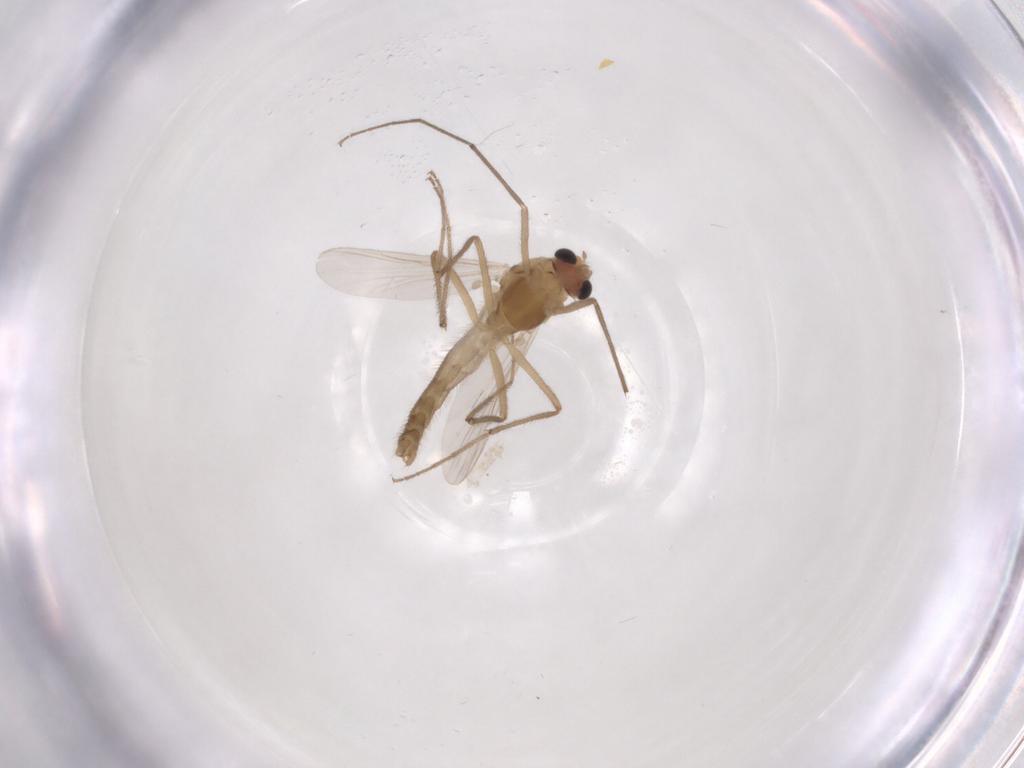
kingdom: Animalia
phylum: Arthropoda
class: Insecta
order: Diptera
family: Chironomidae
